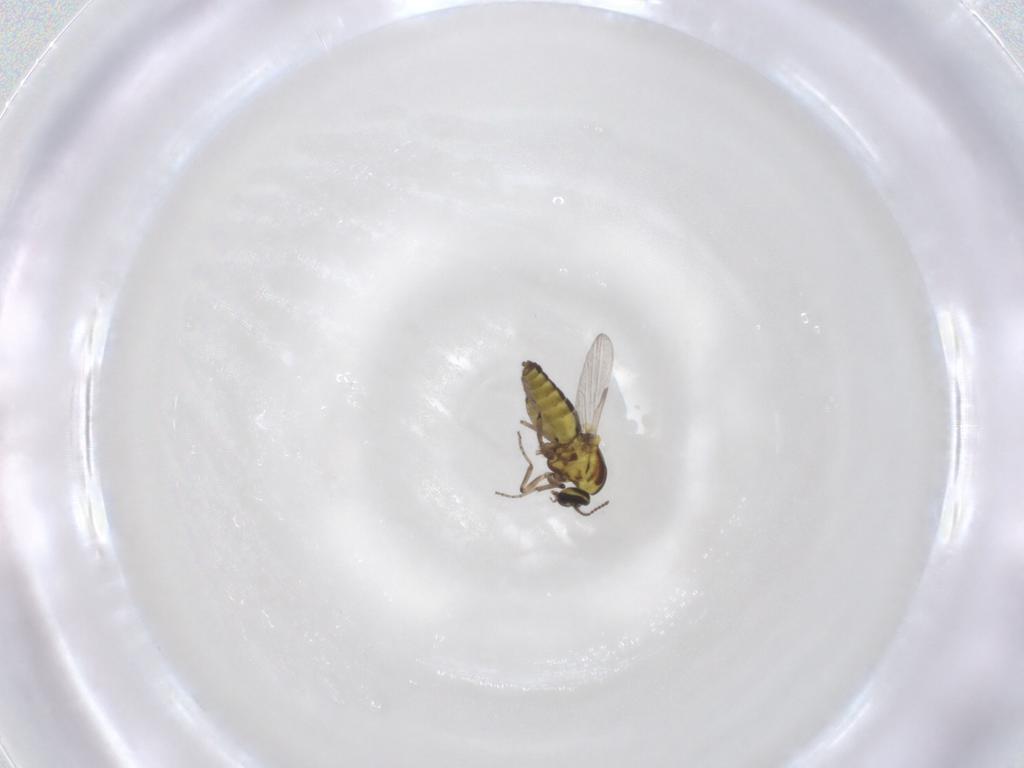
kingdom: Animalia
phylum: Arthropoda
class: Insecta
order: Diptera
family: Ceratopogonidae
